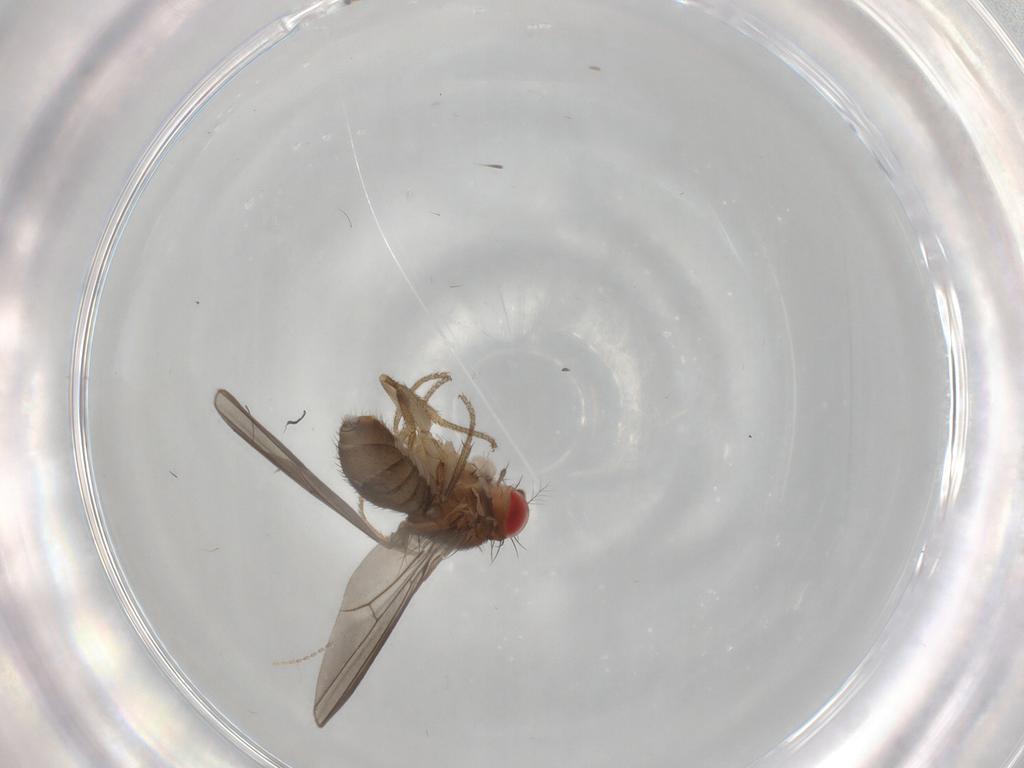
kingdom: Animalia
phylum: Arthropoda
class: Insecta
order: Diptera
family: Drosophilidae
